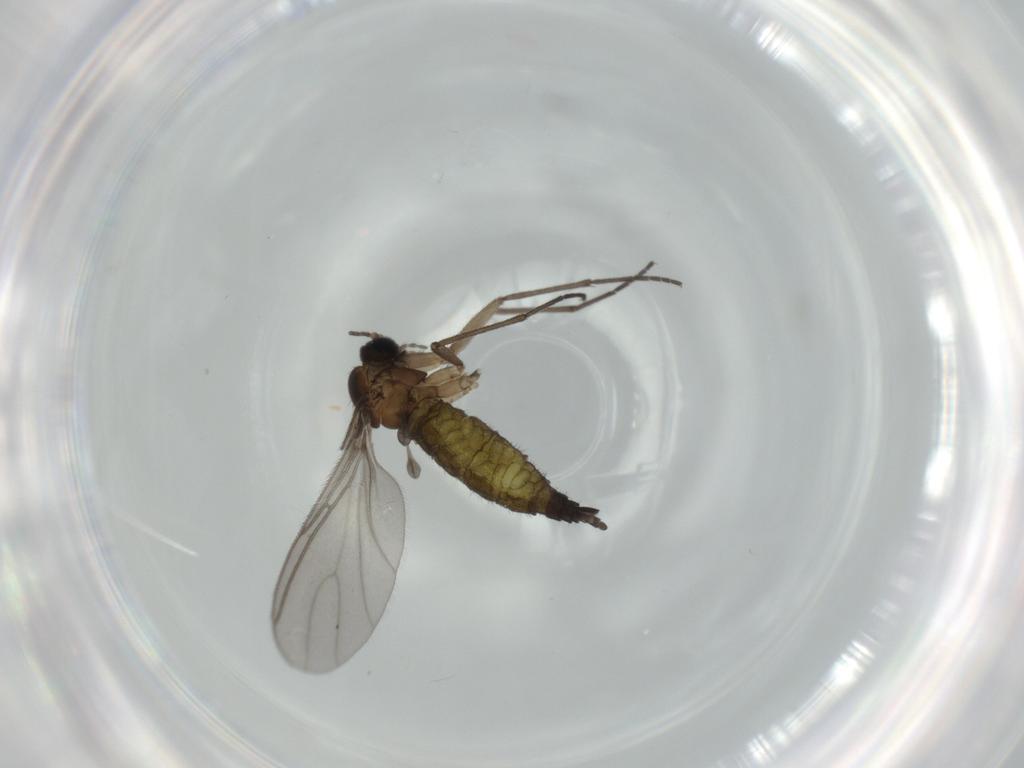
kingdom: Animalia
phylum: Arthropoda
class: Insecta
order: Diptera
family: Sciaridae
